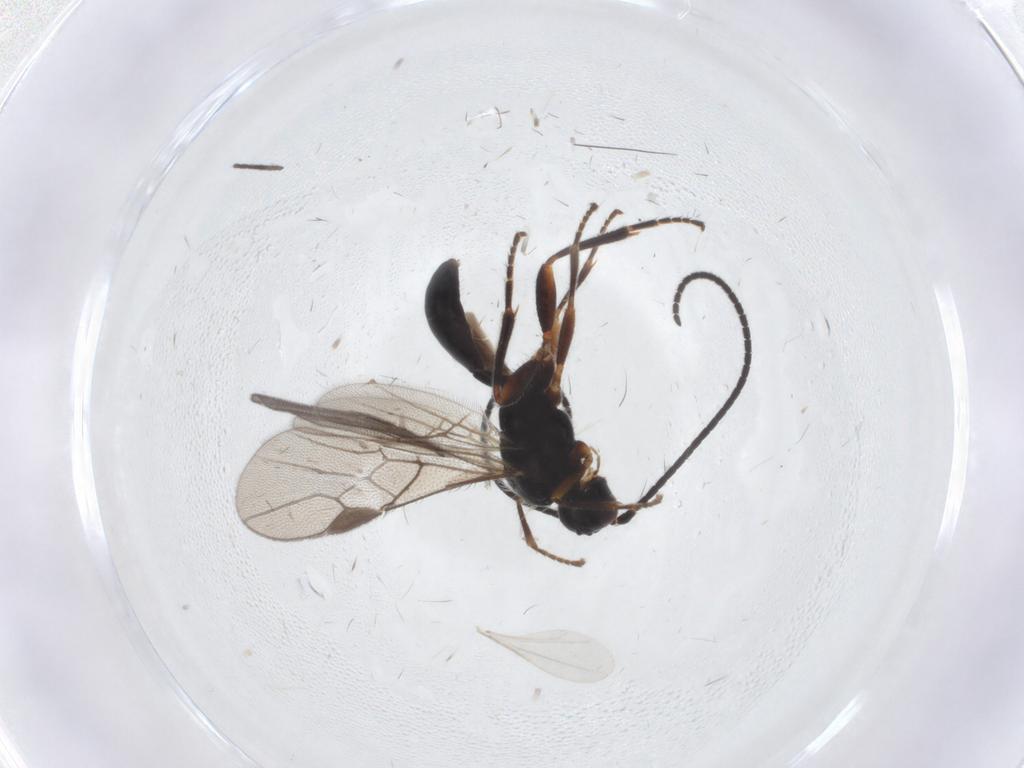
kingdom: Animalia
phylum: Arthropoda
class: Insecta
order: Hymenoptera
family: Braconidae
